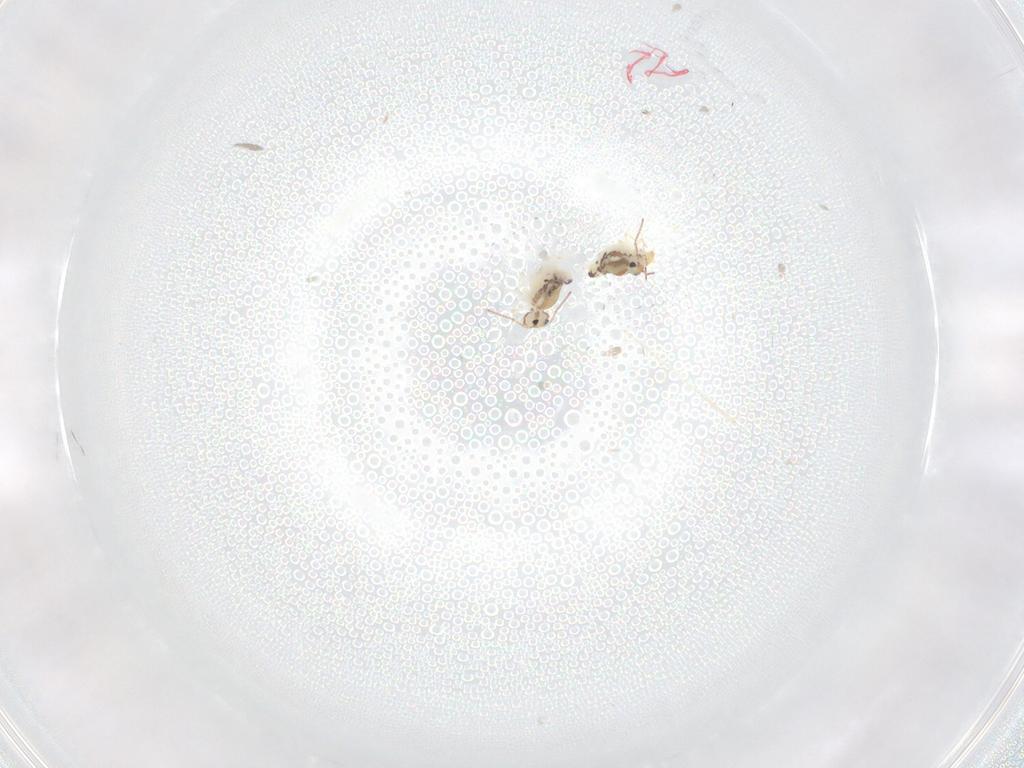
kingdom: Animalia
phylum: Arthropoda
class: Insecta
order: Diptera
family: Cecidomyiidae
